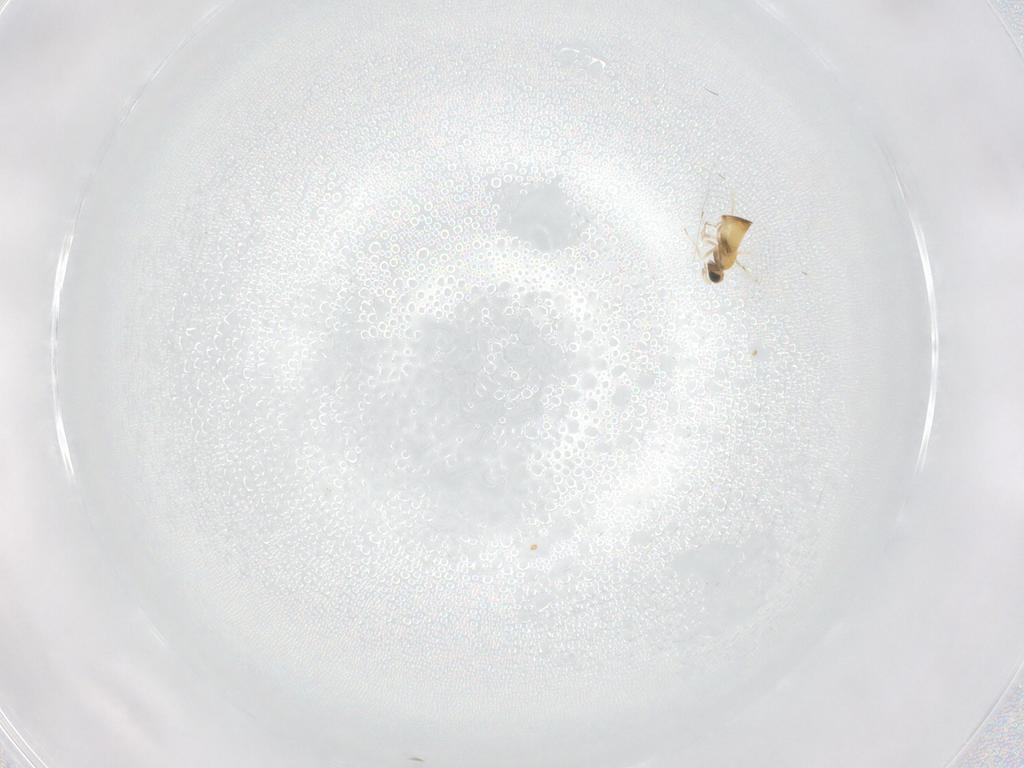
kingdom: Animalia
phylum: Arthropoda
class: Insecta
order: Hymenoptera
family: Trichogrammatidae
